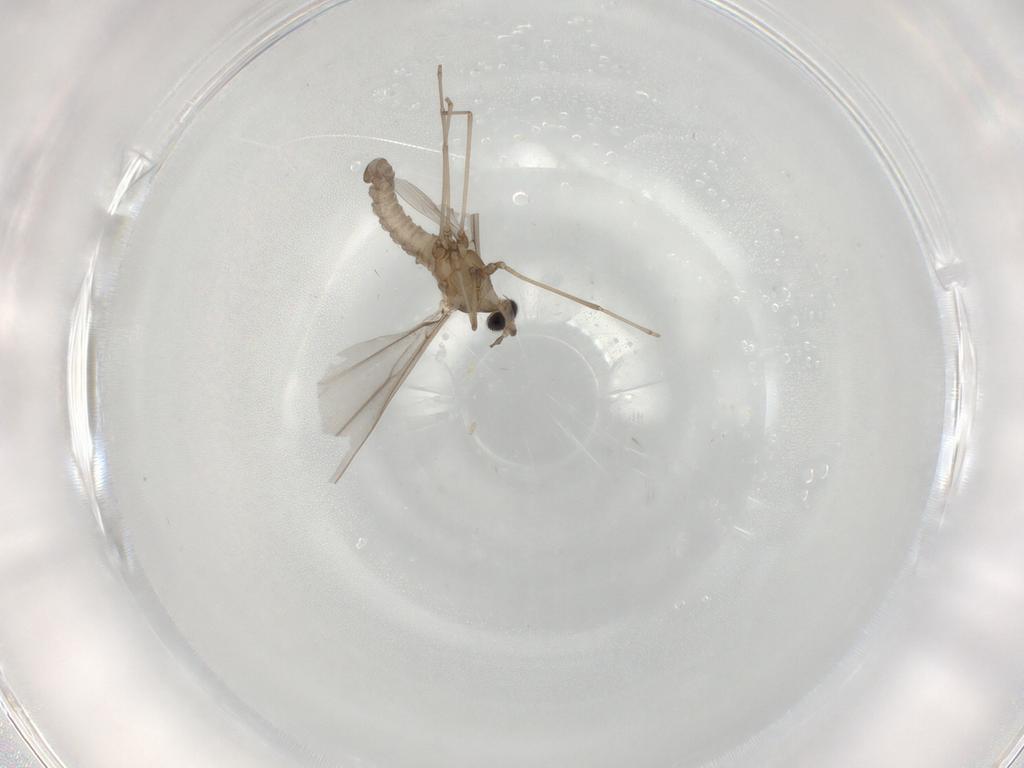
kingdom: Animalia
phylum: Arthropoda
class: Insecta
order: Diptera
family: Cecidomyiidae
